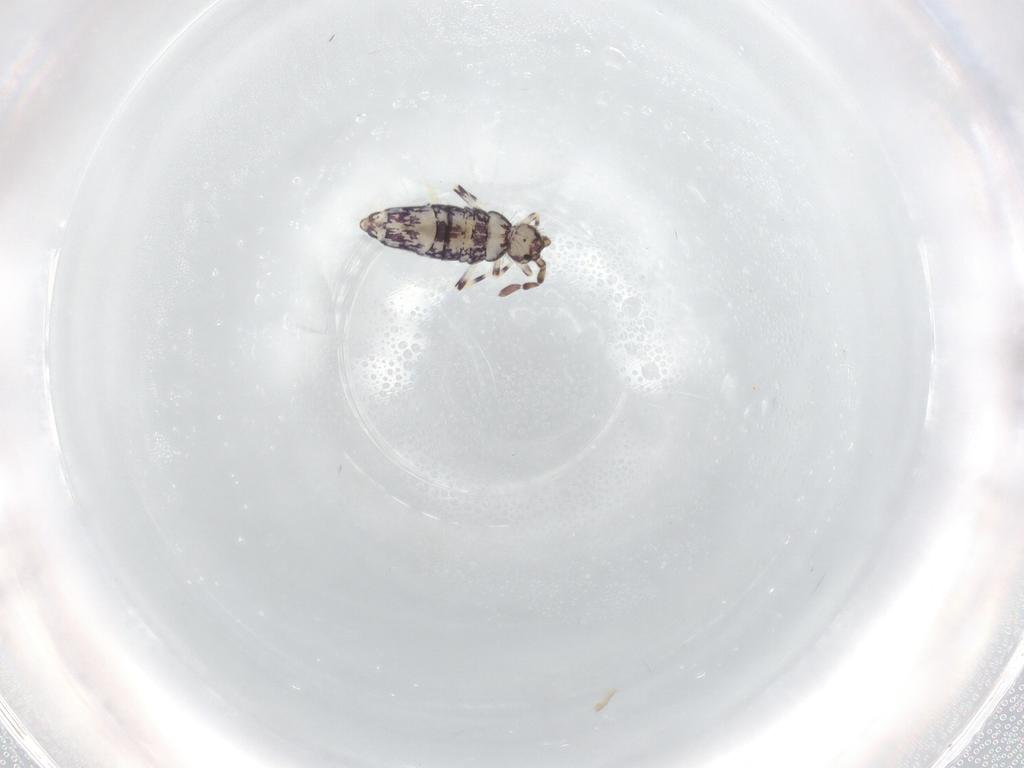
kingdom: Animalia
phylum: Arthropoda
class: Collembola
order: Entomobryomorpha
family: Entomobryidae
